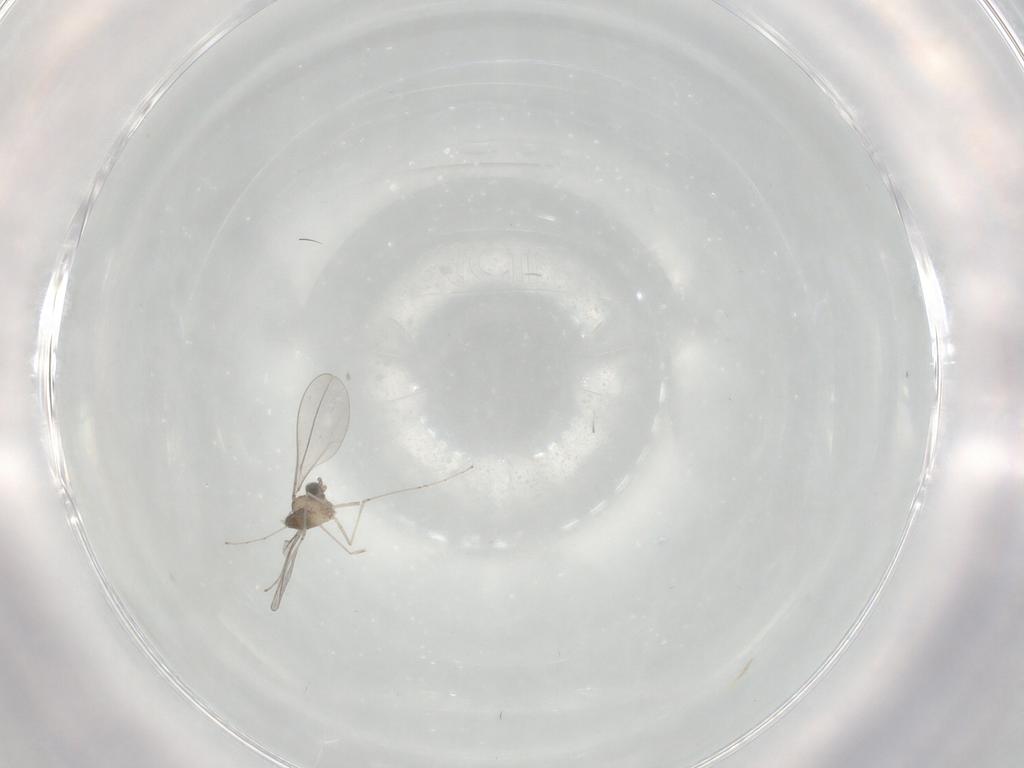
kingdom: Animalia
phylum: Arthropoda
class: Insecta
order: Diptera
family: Cecidomyiidae
